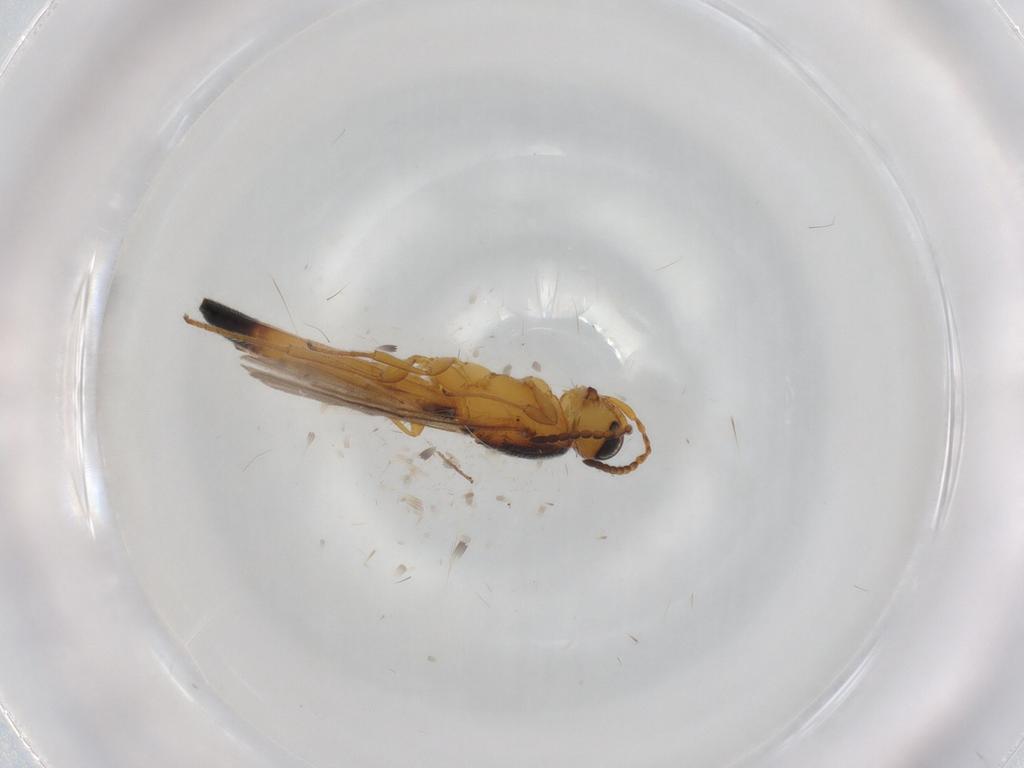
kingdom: Animalia
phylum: Arthropoda
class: Insecta
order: Hymenoptera
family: Scelionidae
